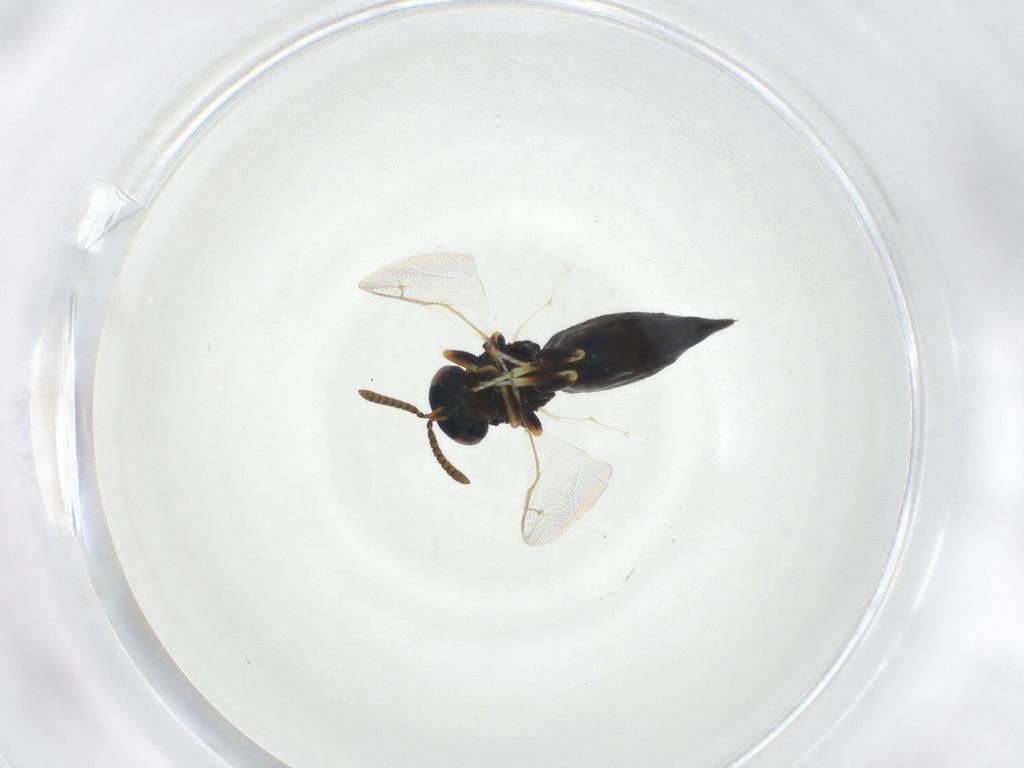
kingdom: Animalia
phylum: Arthropoda
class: Insecta
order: Hymenoptera
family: Pteromalidae
